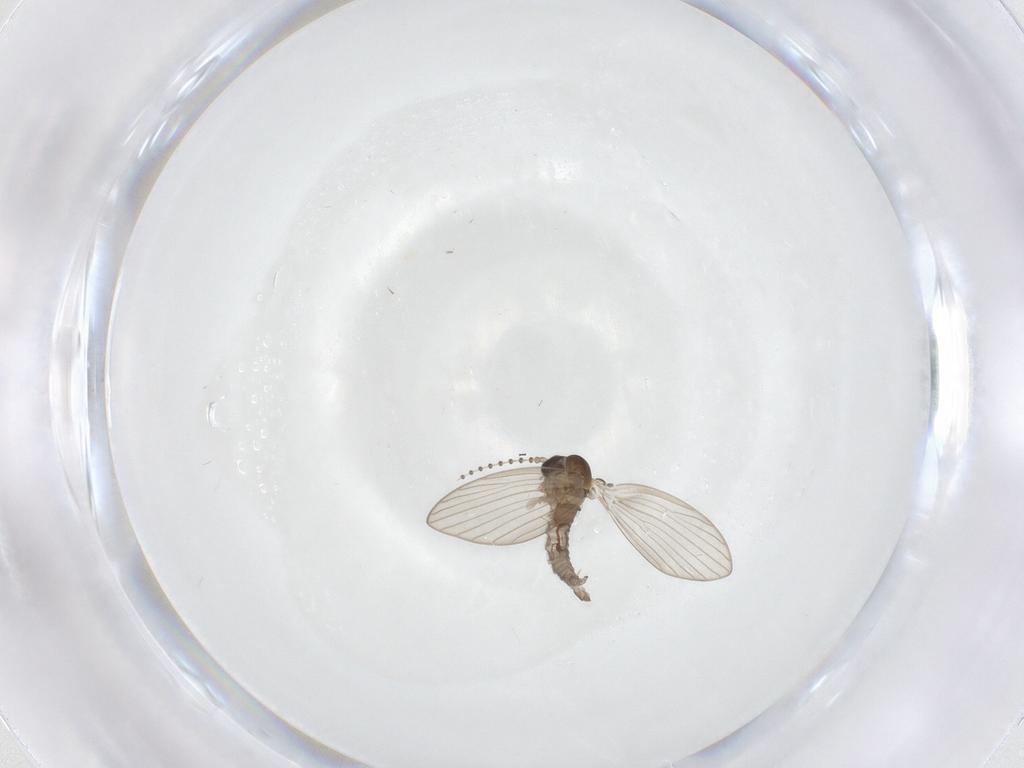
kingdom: Animalia
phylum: Arthropoda
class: Insecta
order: Diptera
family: Psychodidae
